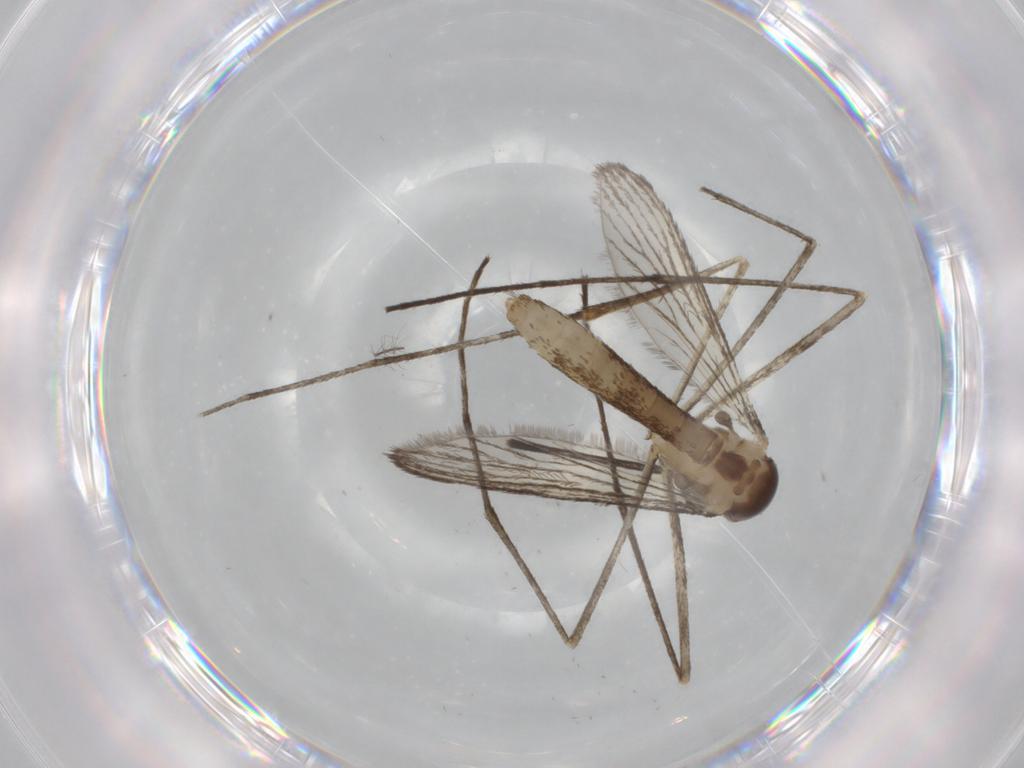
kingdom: Animalia
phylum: Arthropoda
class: Insecta
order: Diptera
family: Culicidae
